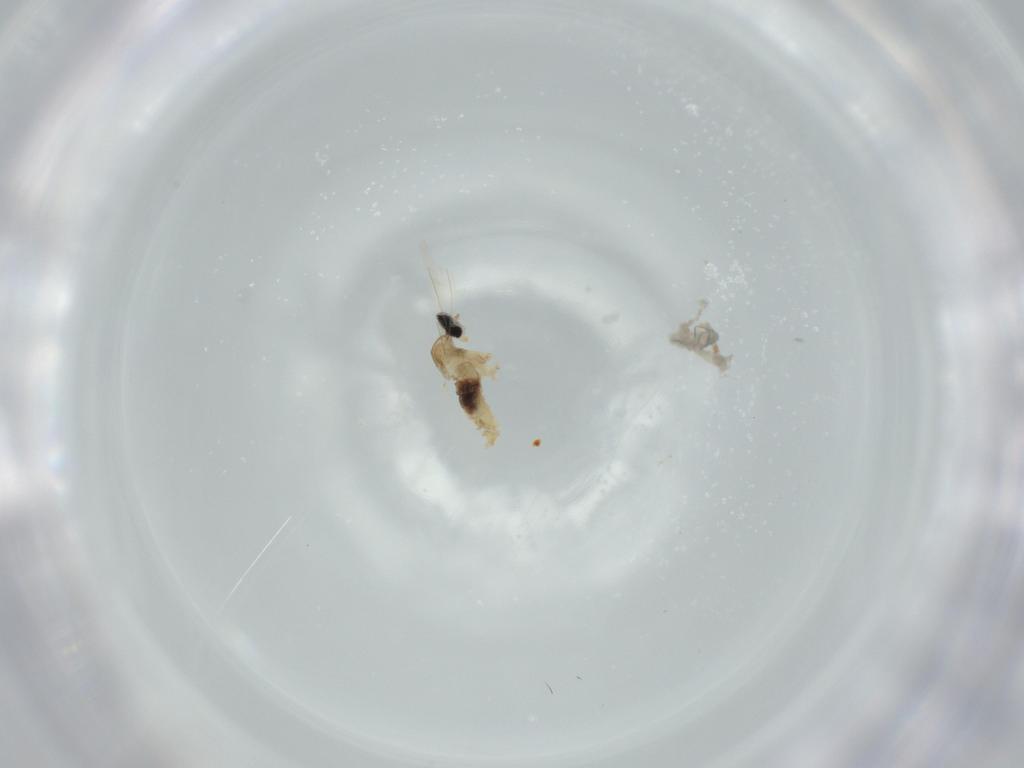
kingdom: Animalia
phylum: Arthropoda
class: Insecta
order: Diptera
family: Cecidomyiidae
